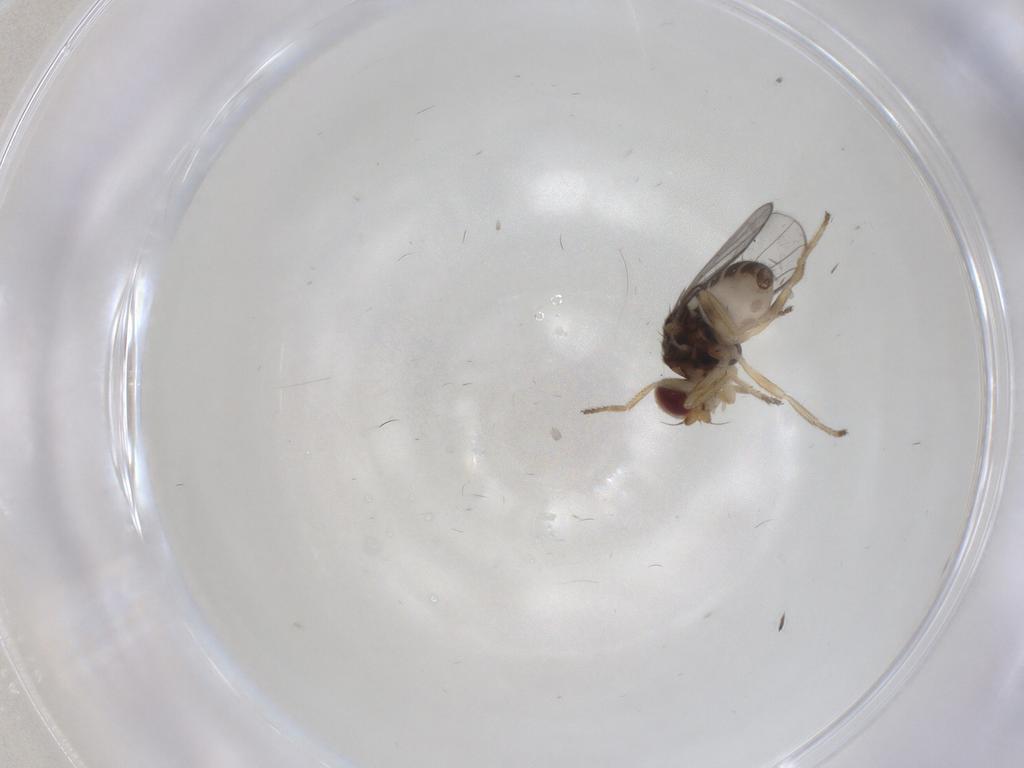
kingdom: Animalia
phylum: Arthropoda
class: Insecta
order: Diptera
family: Chloropidae
